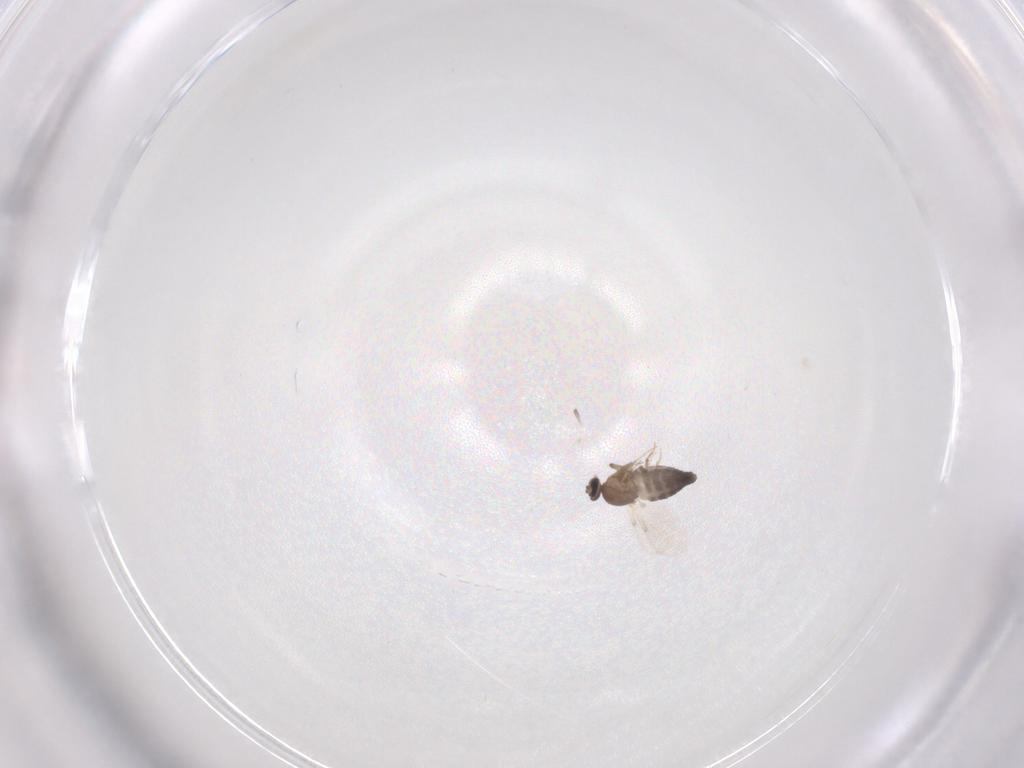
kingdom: Animalia
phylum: Arthropoda
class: Insecta
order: Diptera
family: Ceratopogonidae
